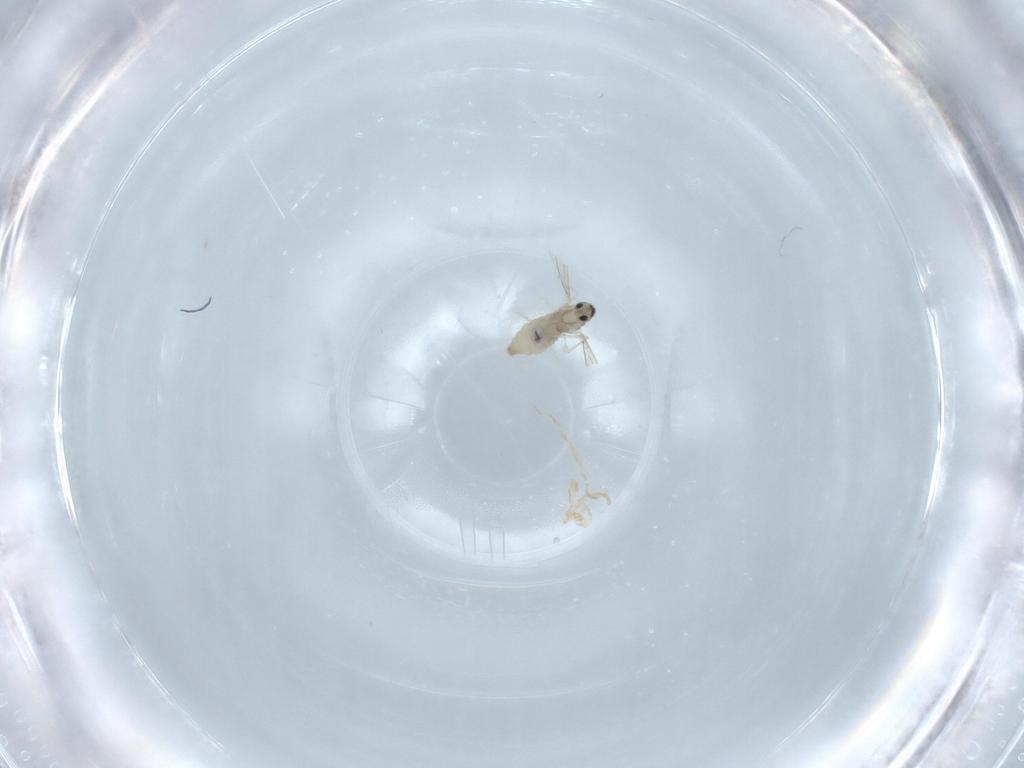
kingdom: Animalia
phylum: Arthropoda
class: Insecta
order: Diptera
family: Cecidomyiidae
